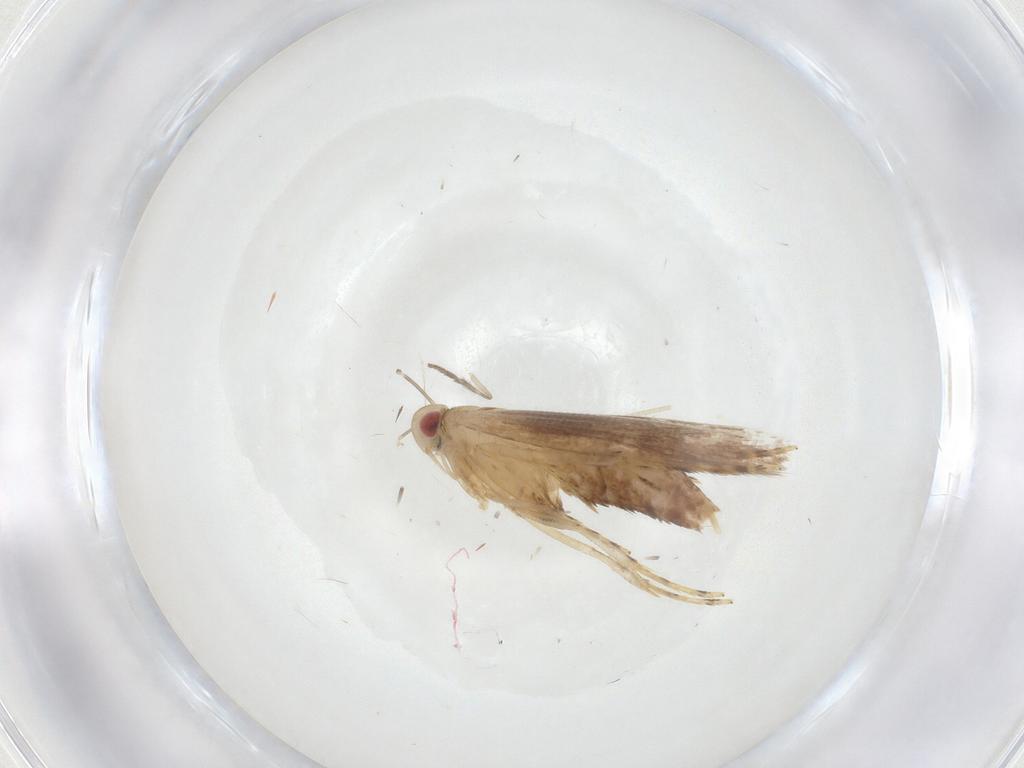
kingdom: Animalia
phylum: Arthropoda
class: Insecta
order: Lepidoptera
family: Cosmopterigidae
